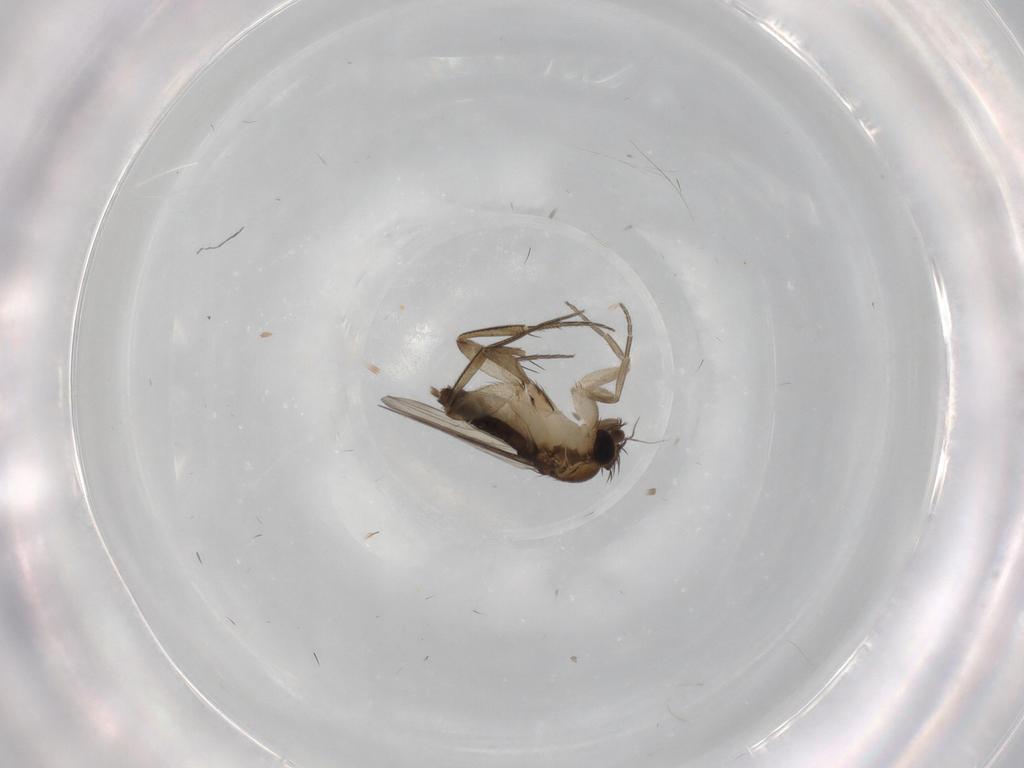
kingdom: Animalia
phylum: Arthropoda
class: Insecta
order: Diptera
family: Phoridae
